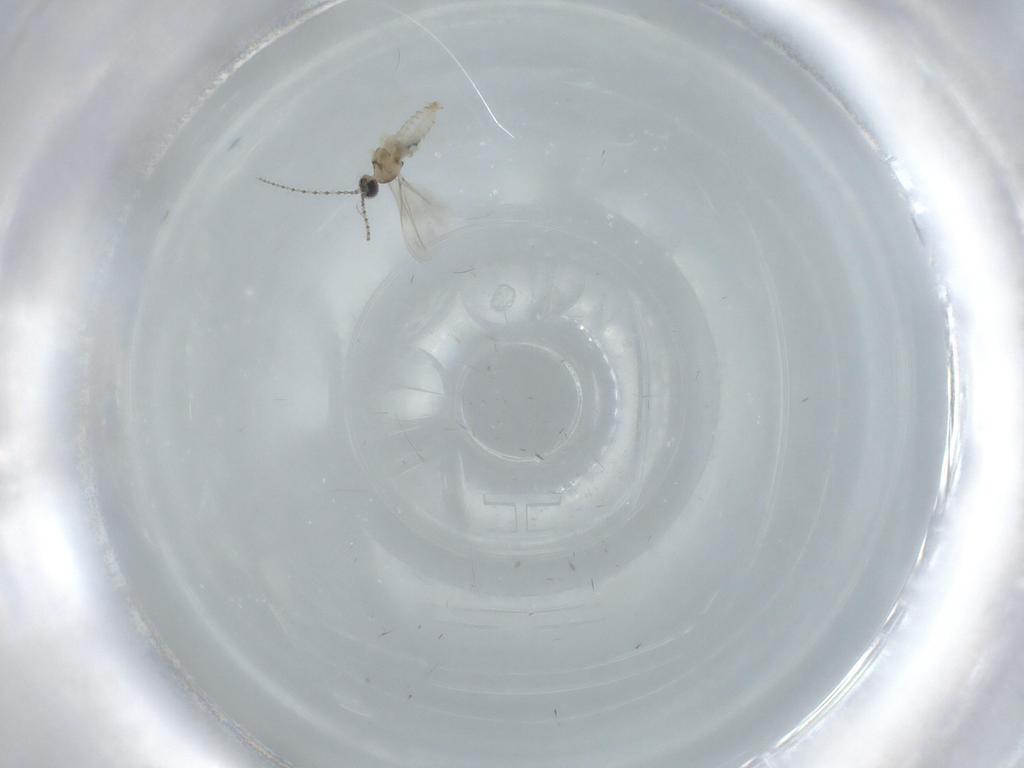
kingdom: Animalia
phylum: Arthropoda
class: Insecta
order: Diptera
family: Cecidomyiidae
